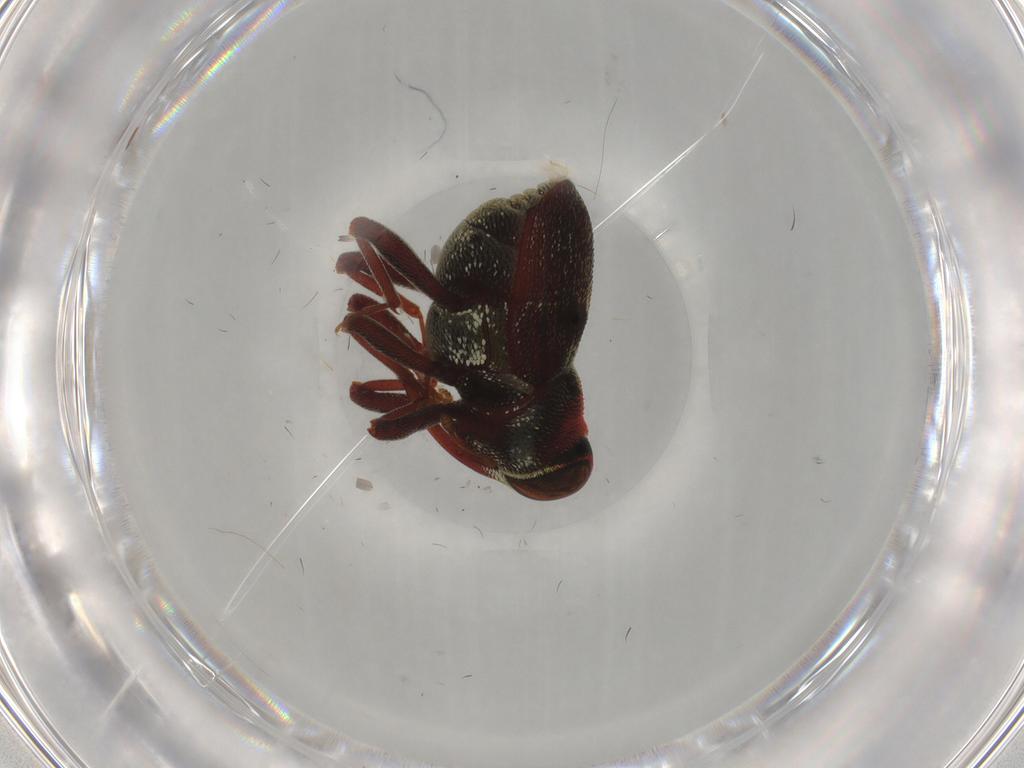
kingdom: Animalia
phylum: Arthropoda
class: Insecta
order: Coleoptera
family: Curculionidae
